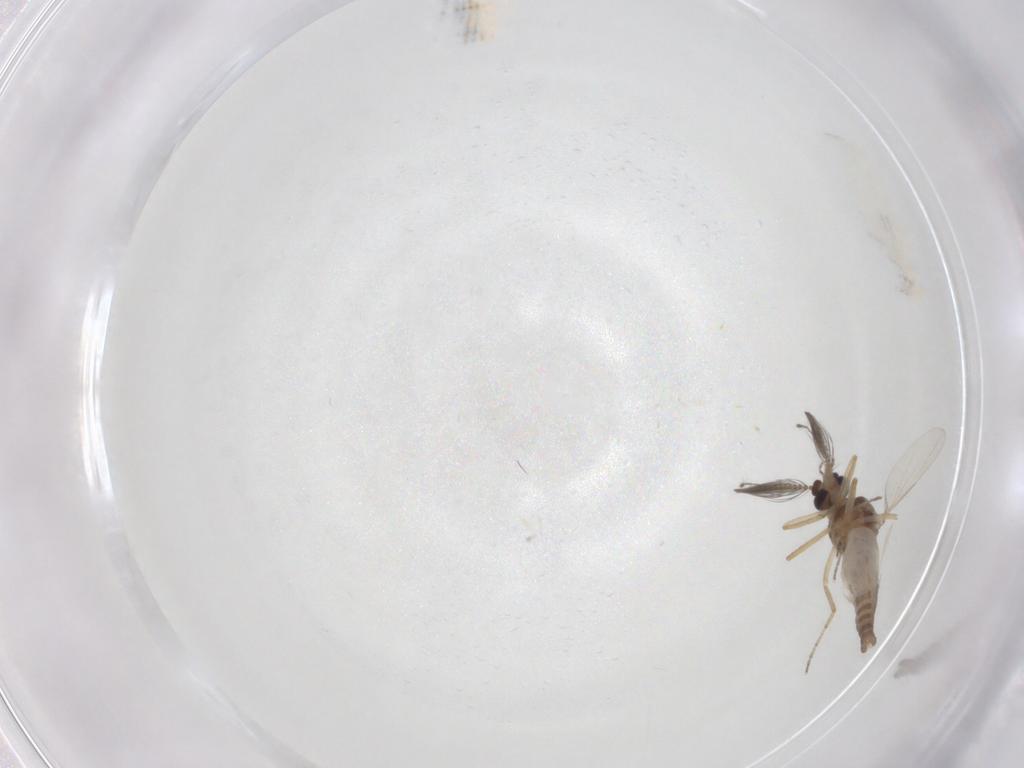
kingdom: Animalia
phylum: Arthropoda
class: Insecta
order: Diptera
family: Ceratopogonidae
